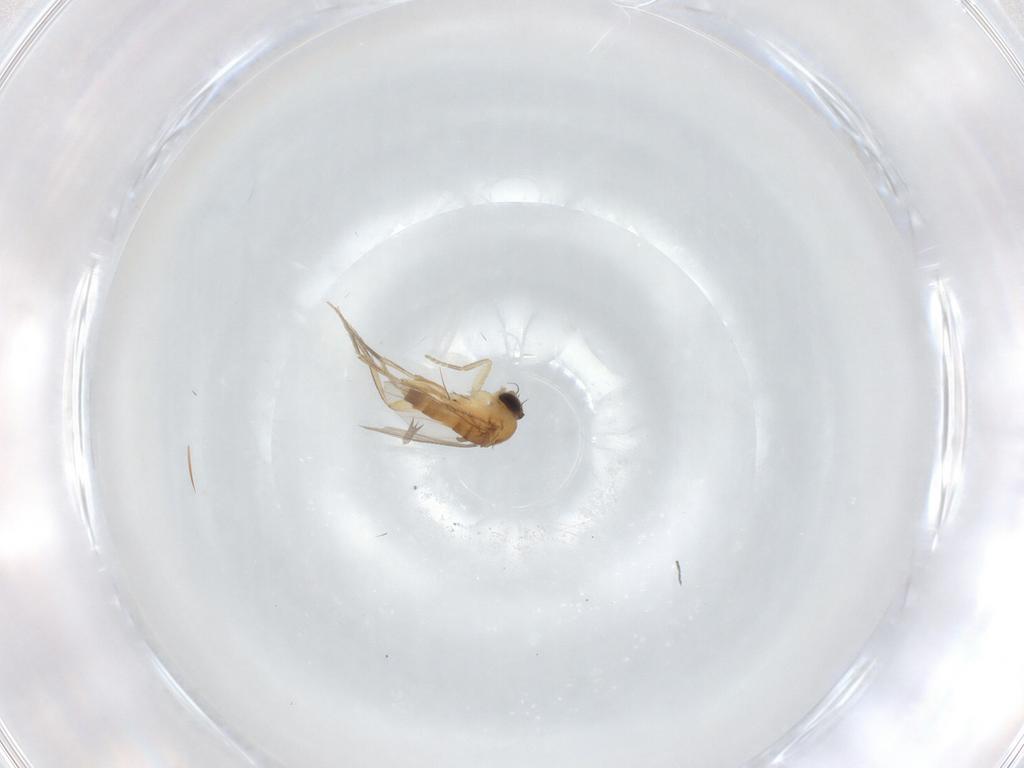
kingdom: Animalia
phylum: Arthropoda
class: Insecta
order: Diptera
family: Phoridae
